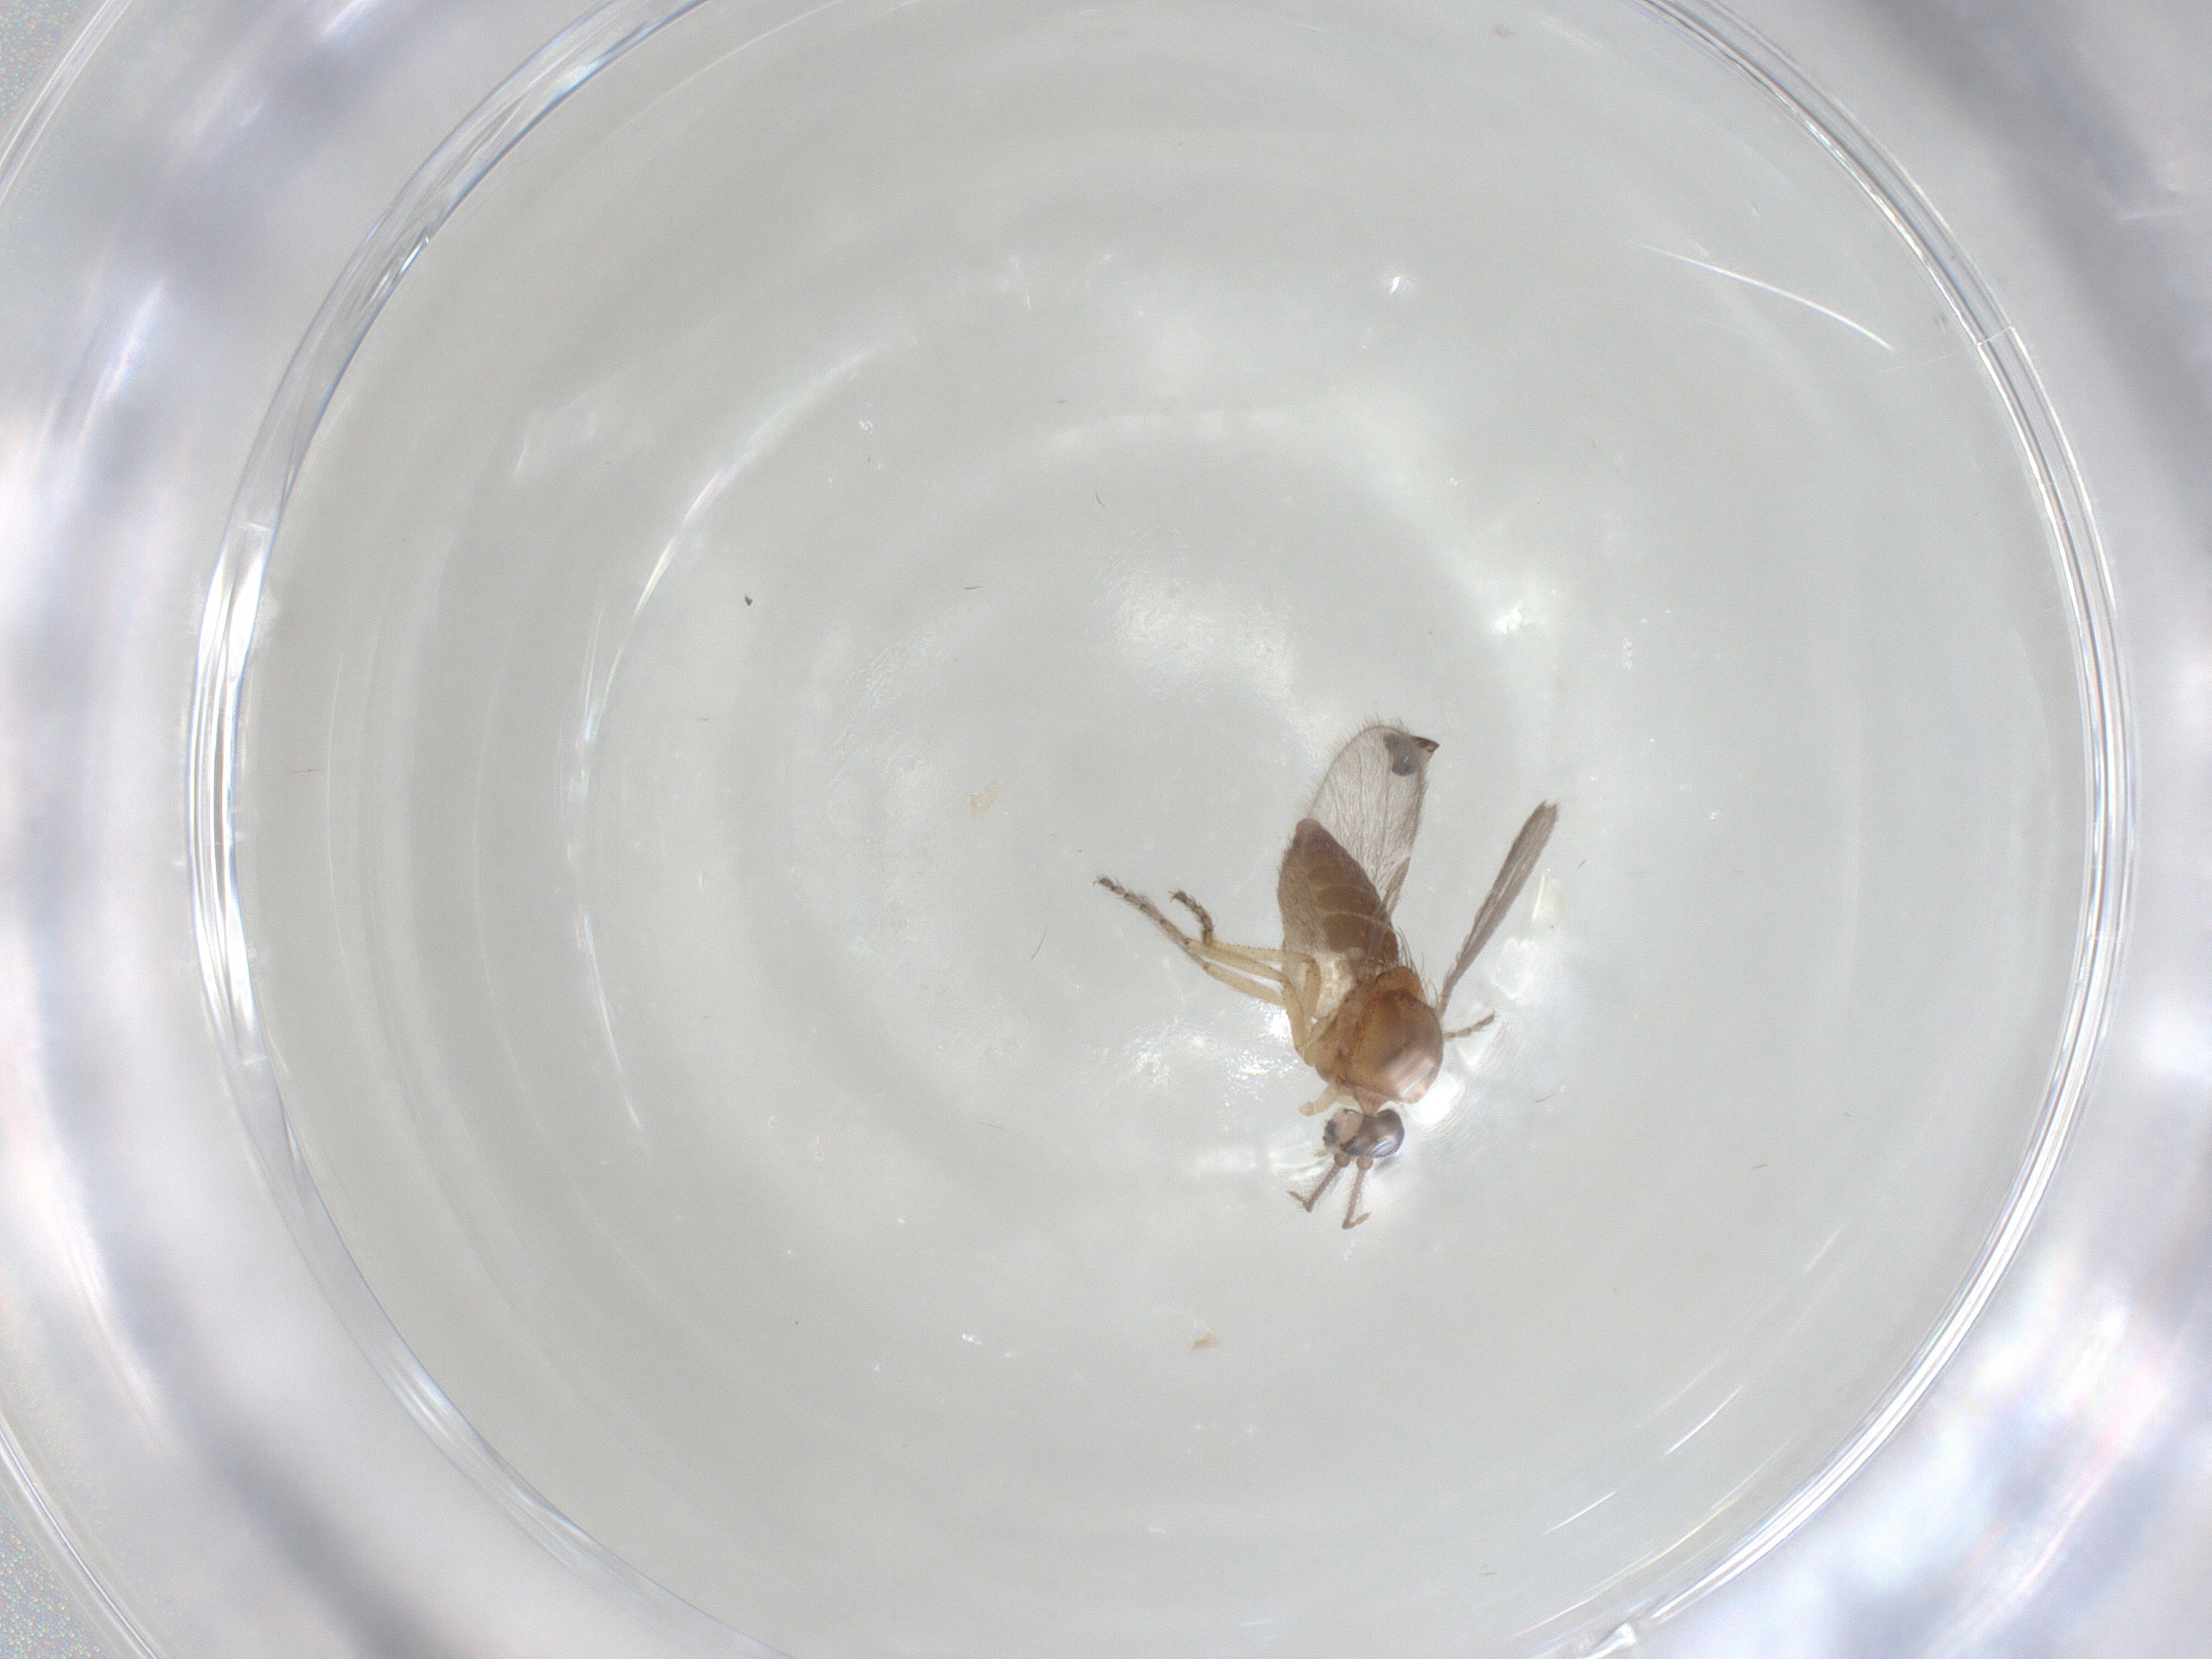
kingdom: Animalia
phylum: Arthropoda
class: Insecta
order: Diptera
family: Ceratopogonidae
